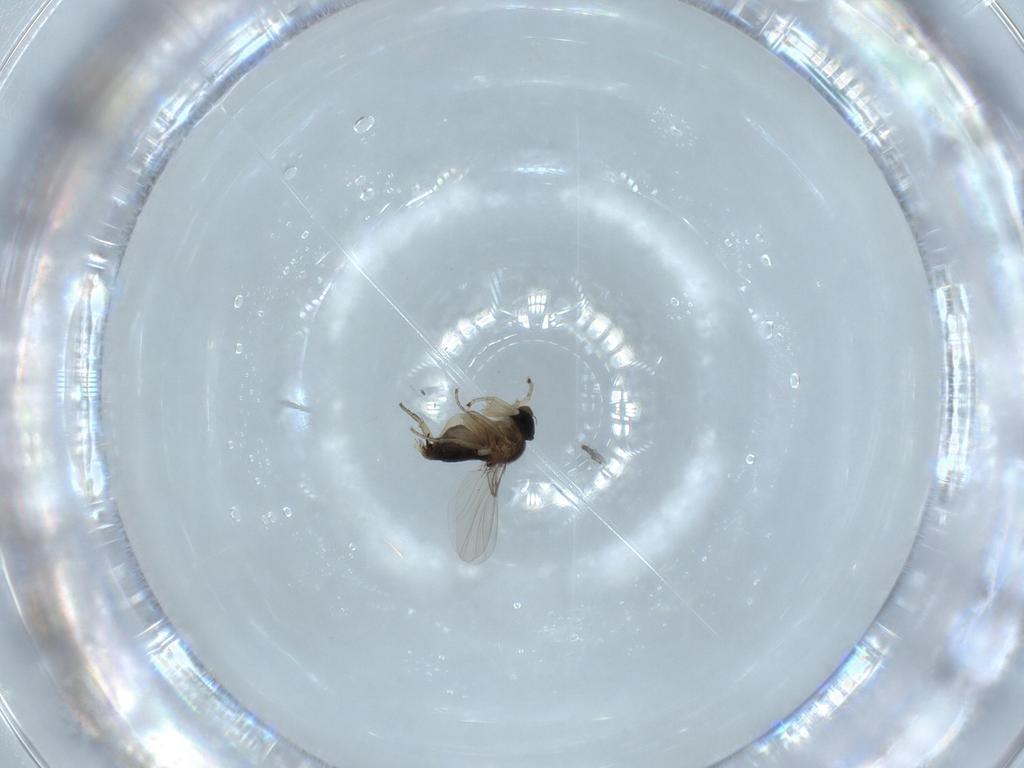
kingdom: Animalia
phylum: Arthropoda
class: Insecta
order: Diptera
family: Phoridae
